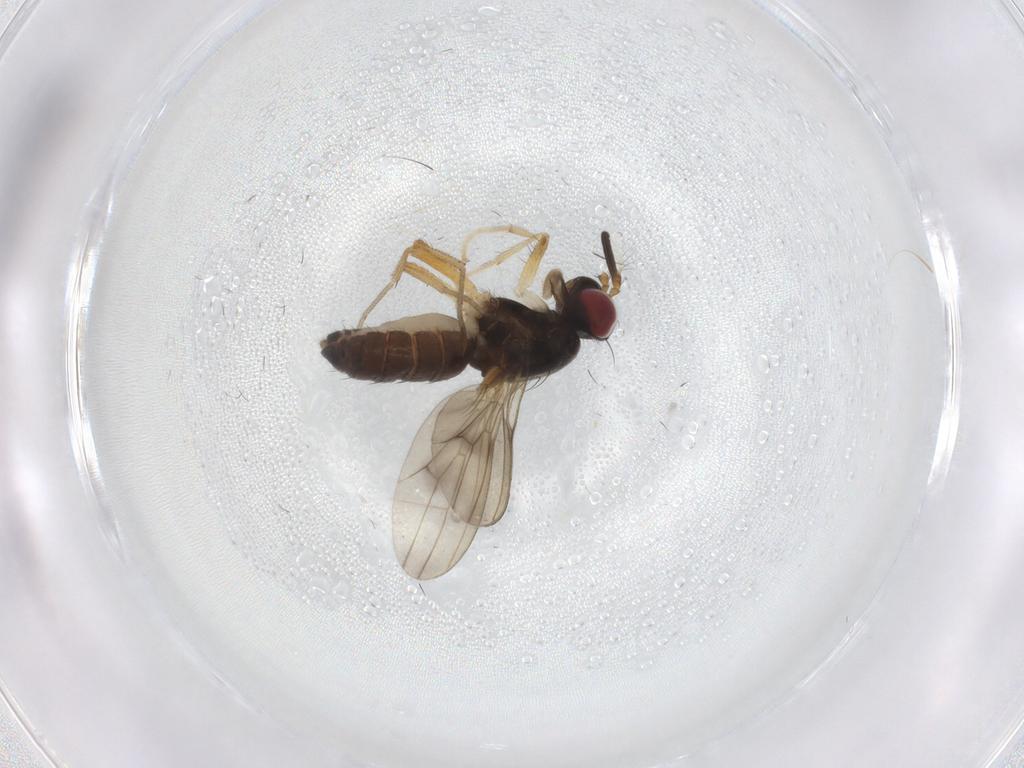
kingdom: Animalia
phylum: Arthropoda
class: Insecta
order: Diptera
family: Lauxaniidae
